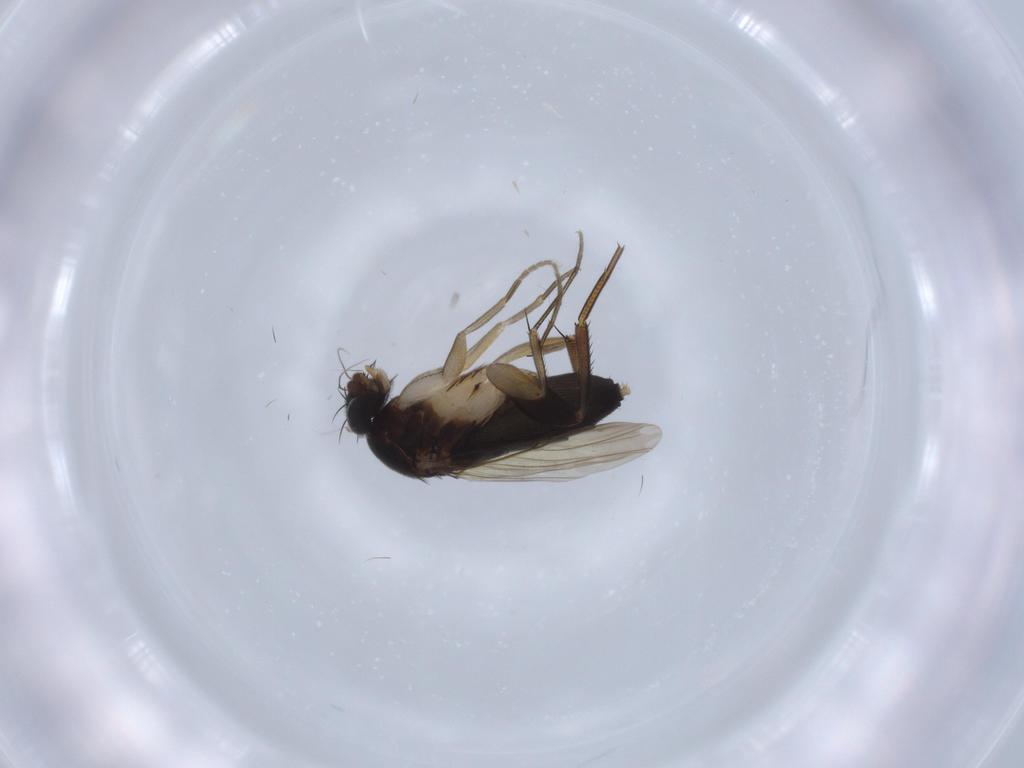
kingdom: Animalia
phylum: Arthropoda
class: Insecta
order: Diptera
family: Phoridae
